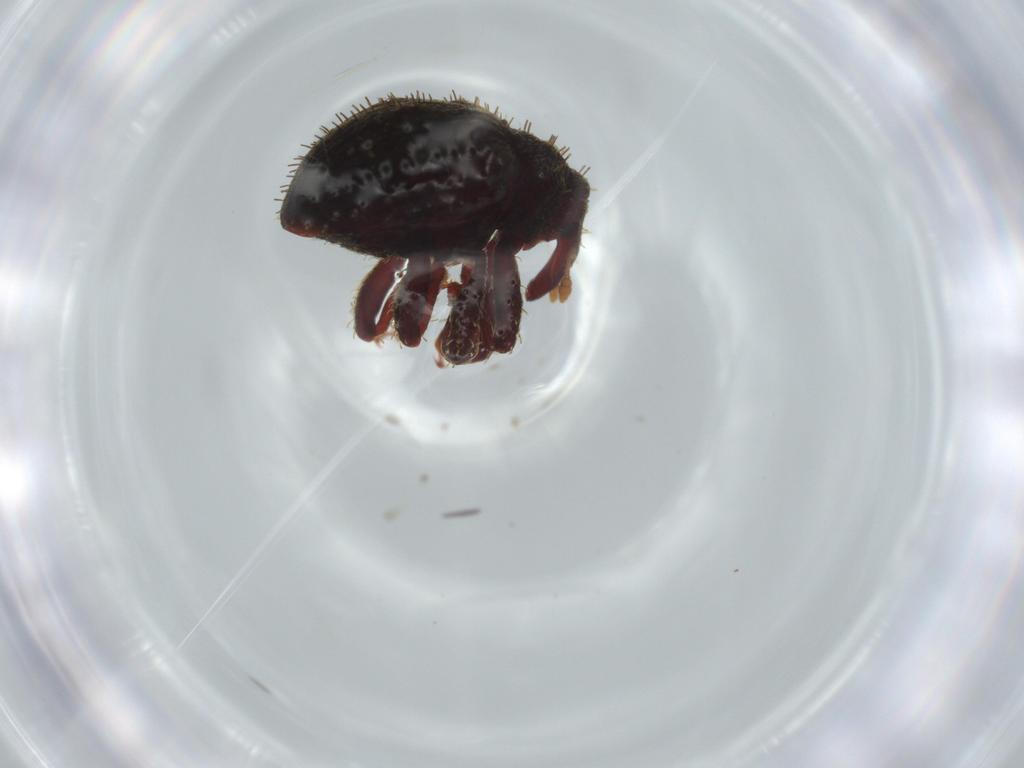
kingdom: Animalia
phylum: Arthropoda
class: Insecta
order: Coleoptera
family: Curculionidae
